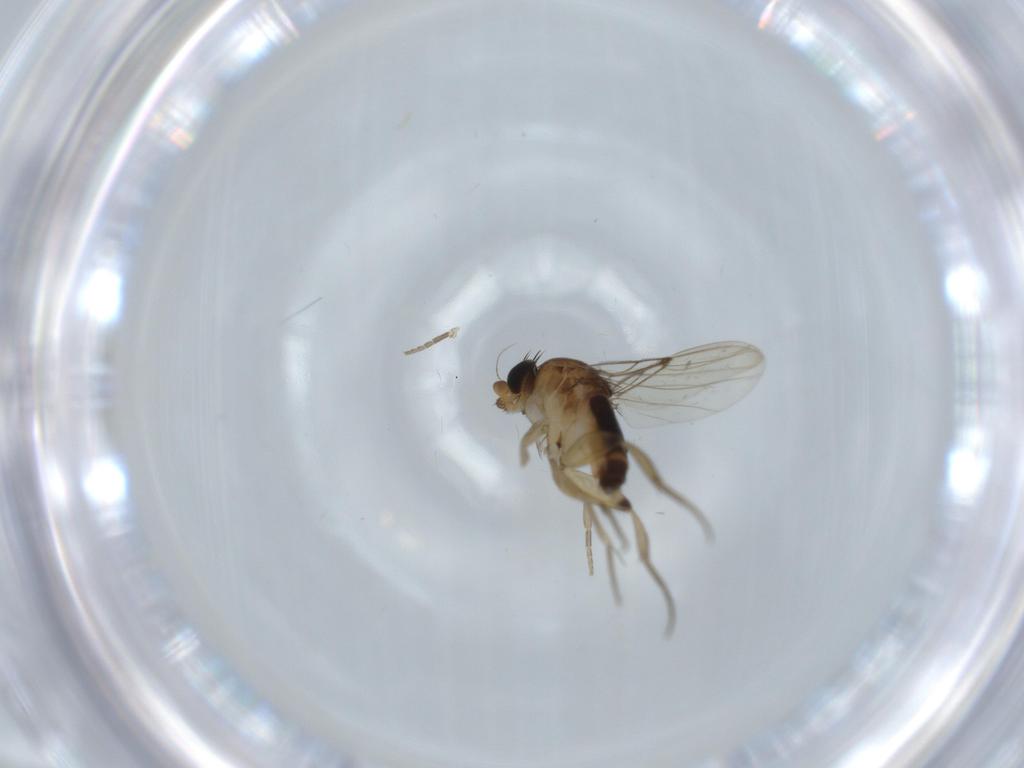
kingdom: Animalia
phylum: Arthropoda
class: Insecta
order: Diptera
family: Phoridae
